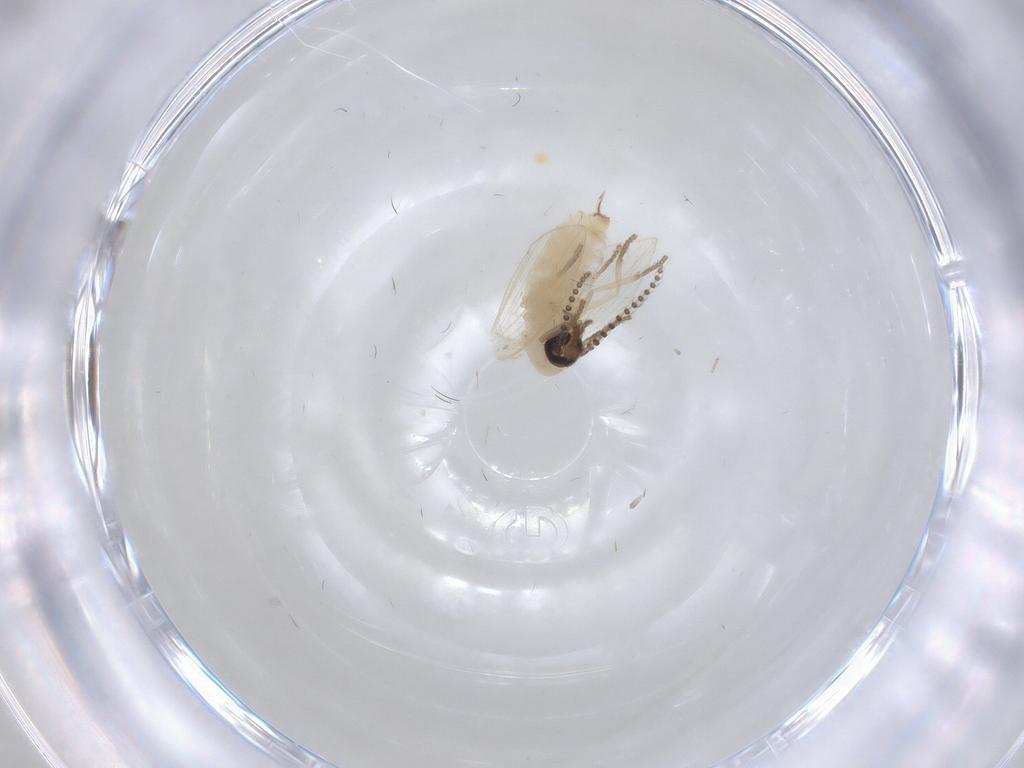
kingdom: Animalia
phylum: Arthropoda
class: Insecta
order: Diptera
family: Psychodidae
